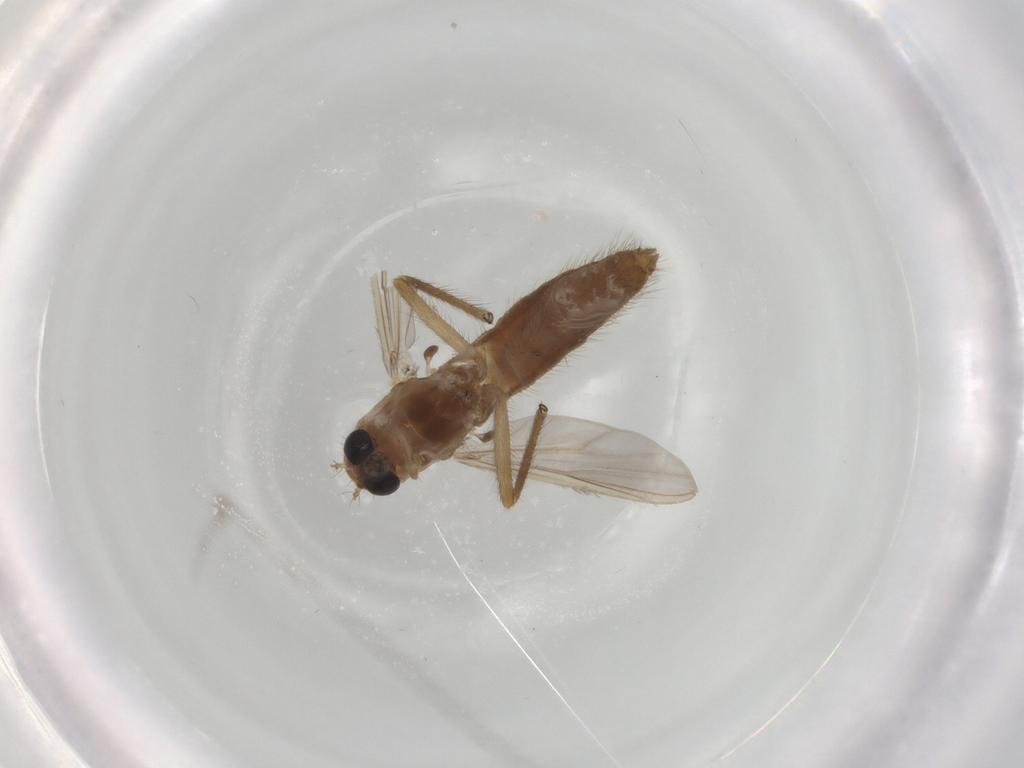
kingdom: Animalia
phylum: Arthropoda
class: Insecta
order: Diptera
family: Chironomidae
